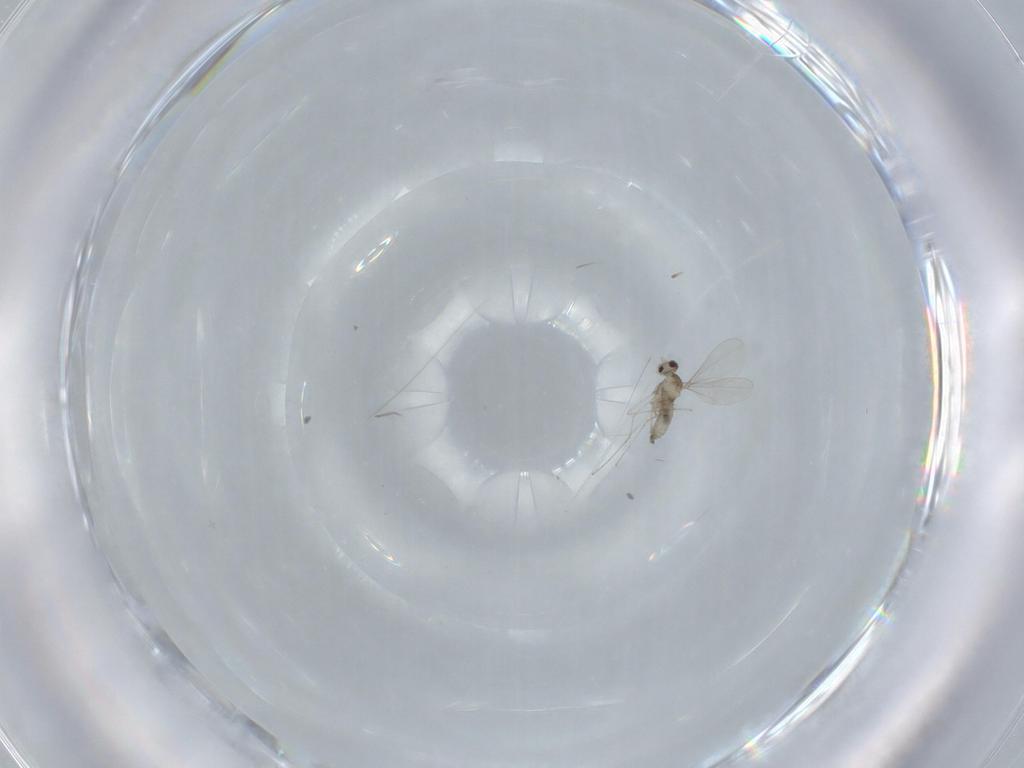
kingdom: Animalia
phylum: Arthropoda
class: Insecta
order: Diptera
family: Cecidomyiidae
